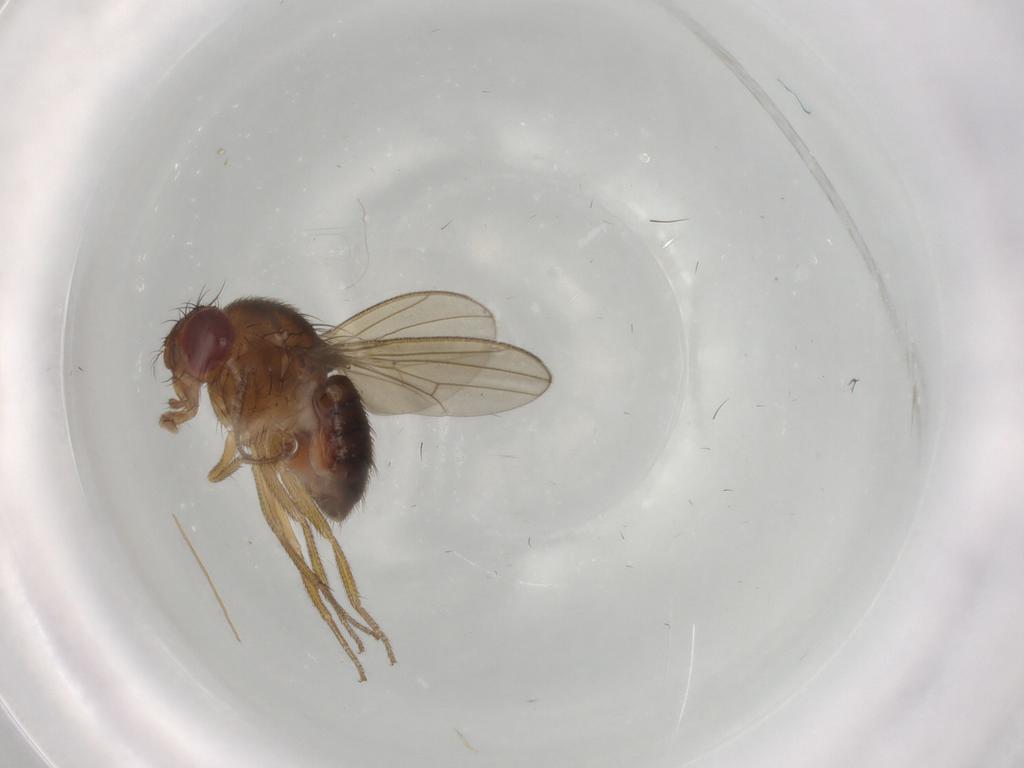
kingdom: Animalia
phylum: Arthropoda
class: Insecta
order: Diptera
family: Drosophilidae
